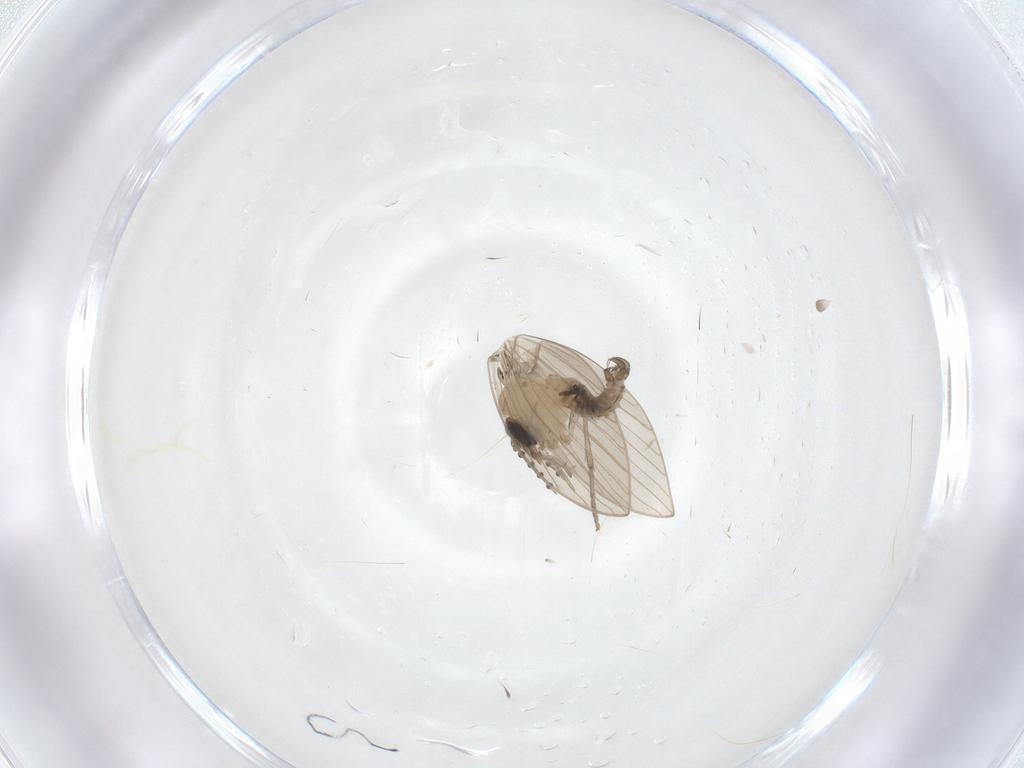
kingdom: Animalia
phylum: Arthropoda
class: Insecta
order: Diptera
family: Psychodidae
